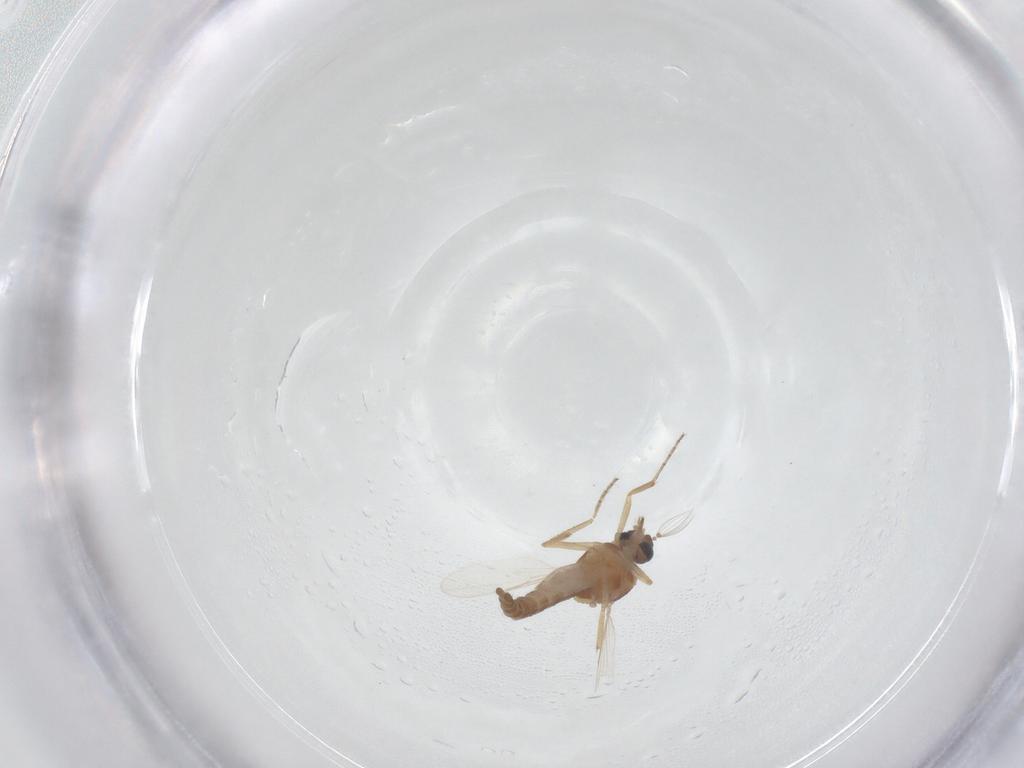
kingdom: Animalia
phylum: Arthropoda
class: Insecta
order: Diptera
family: Ceratopogonidae
